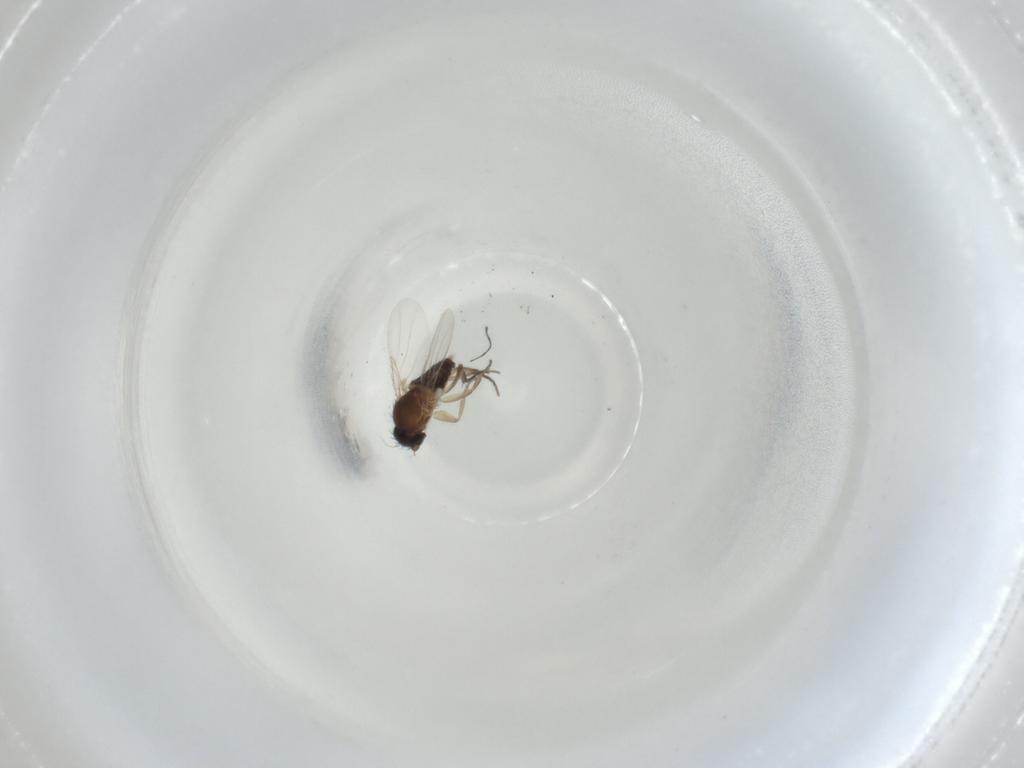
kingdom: Animalia
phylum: Arthropoda
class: Insecta
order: Diptera
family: Phoridae
